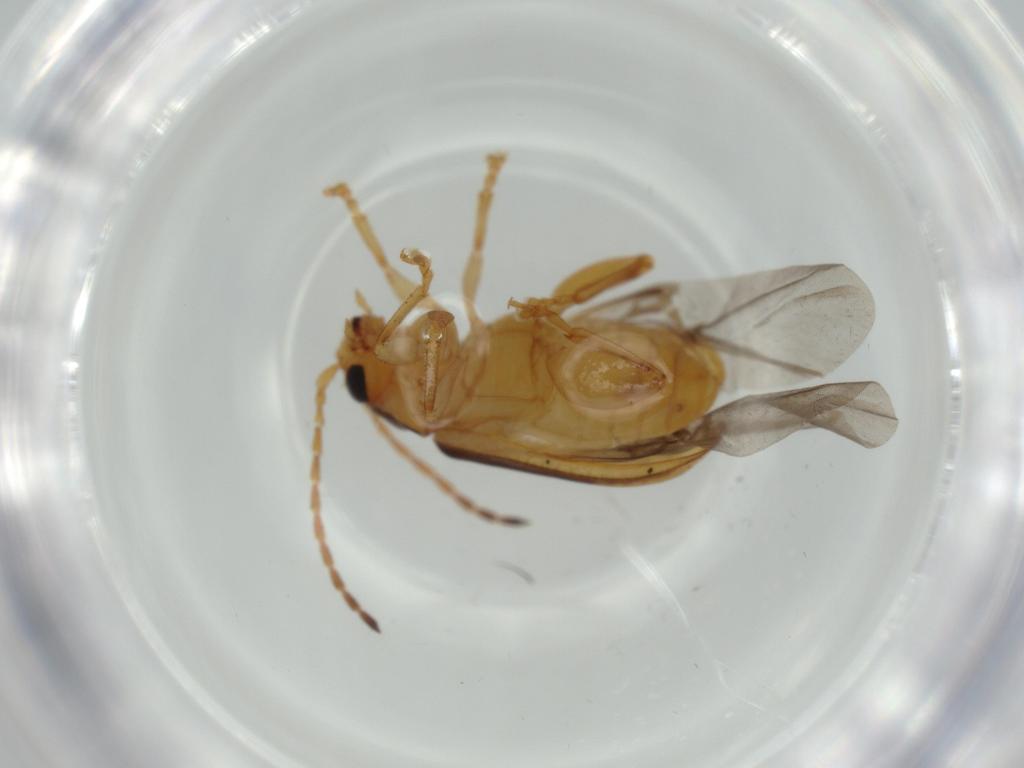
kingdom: Animalia
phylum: Arthropoda
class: Insecta
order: Coleoptera
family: Chrysomelidae
